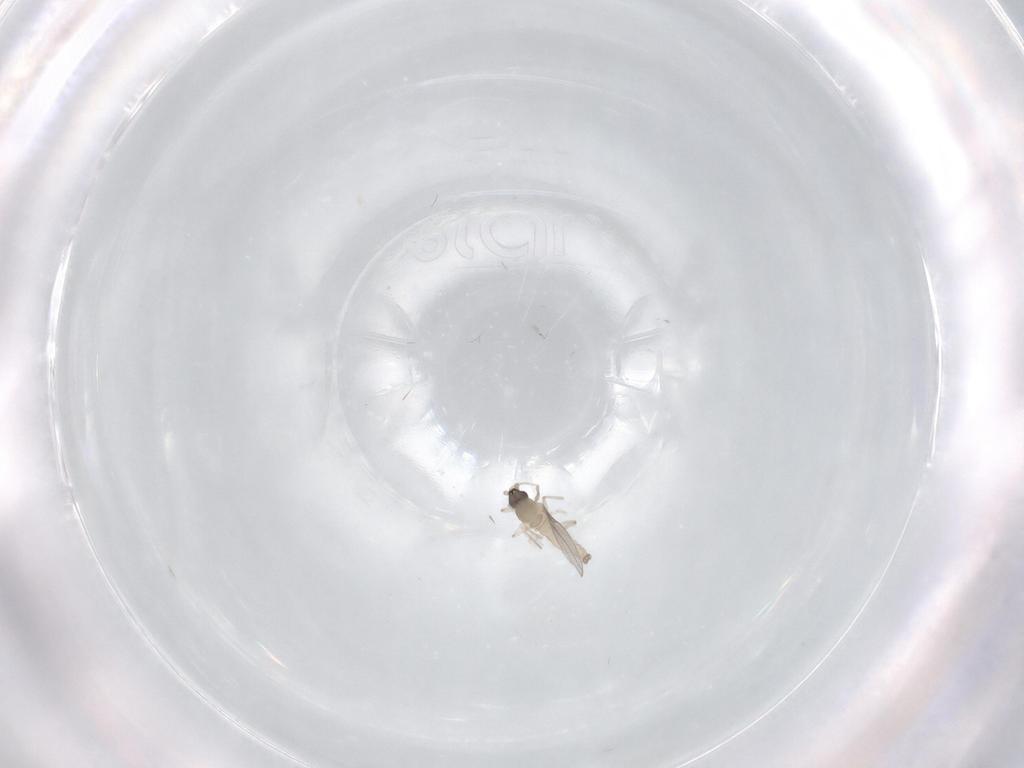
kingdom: Animalia
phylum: Arthropoda
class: Insecta
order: Diptera
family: Cecidomyiidae
